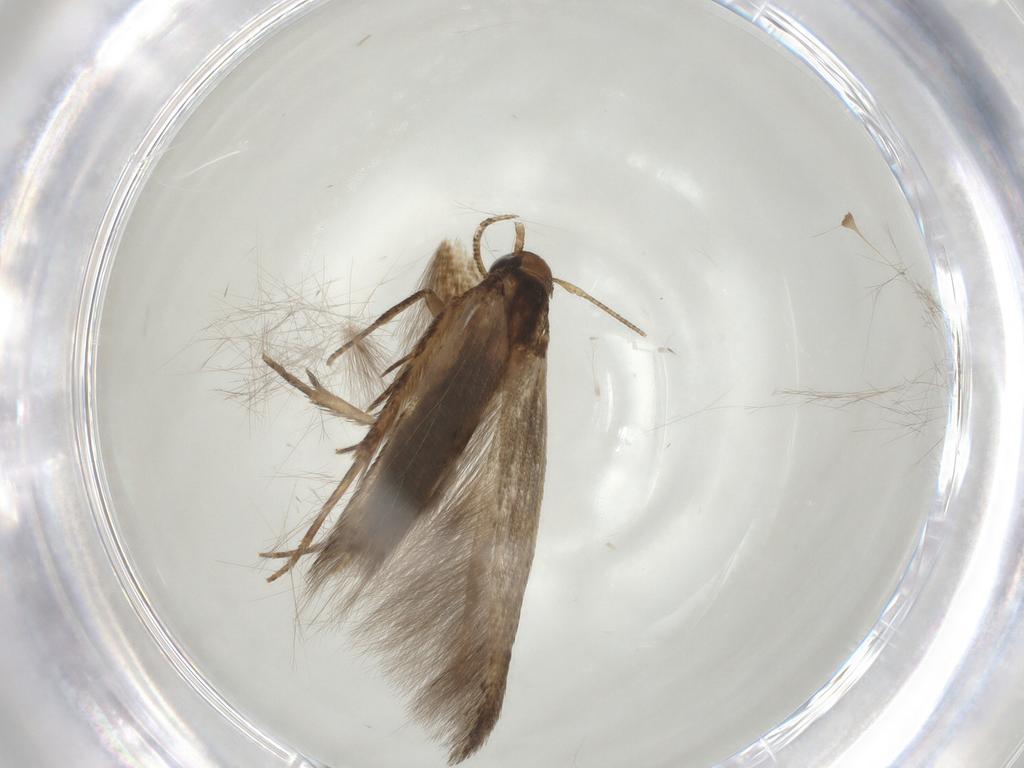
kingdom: Animalia
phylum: Arthropoda
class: Insecta
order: Lepidoptera
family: Cosmopterigidae
